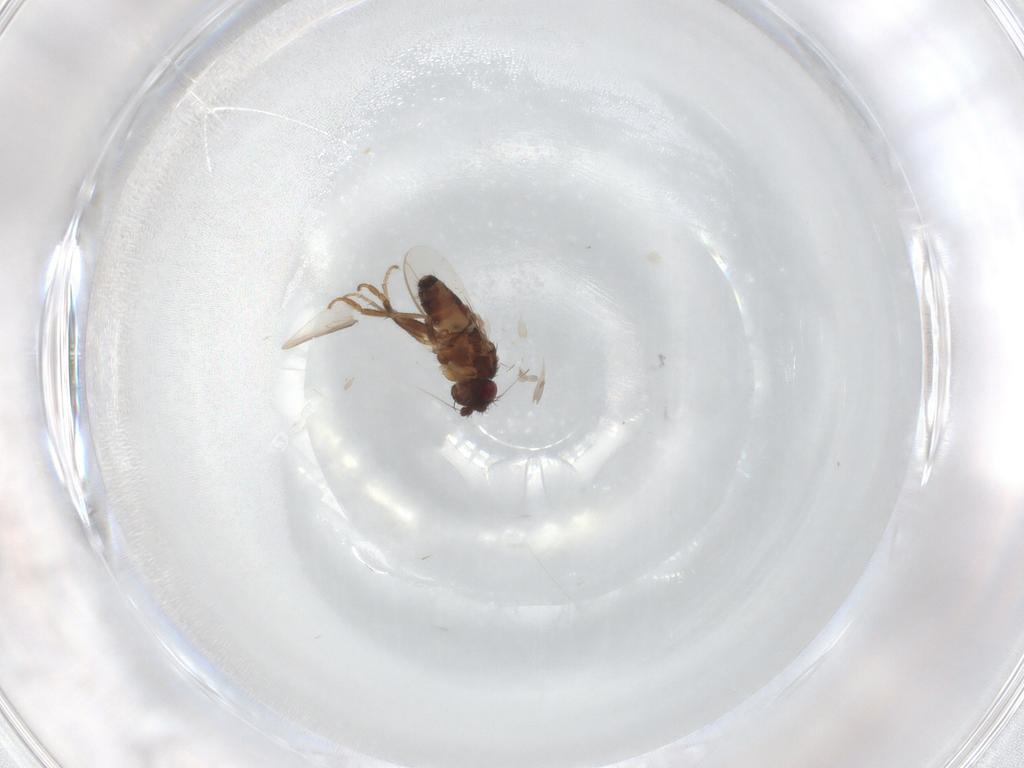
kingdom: Animalia
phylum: Arthropoda
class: Insecta
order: Diptera
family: Sphaeroceridae
